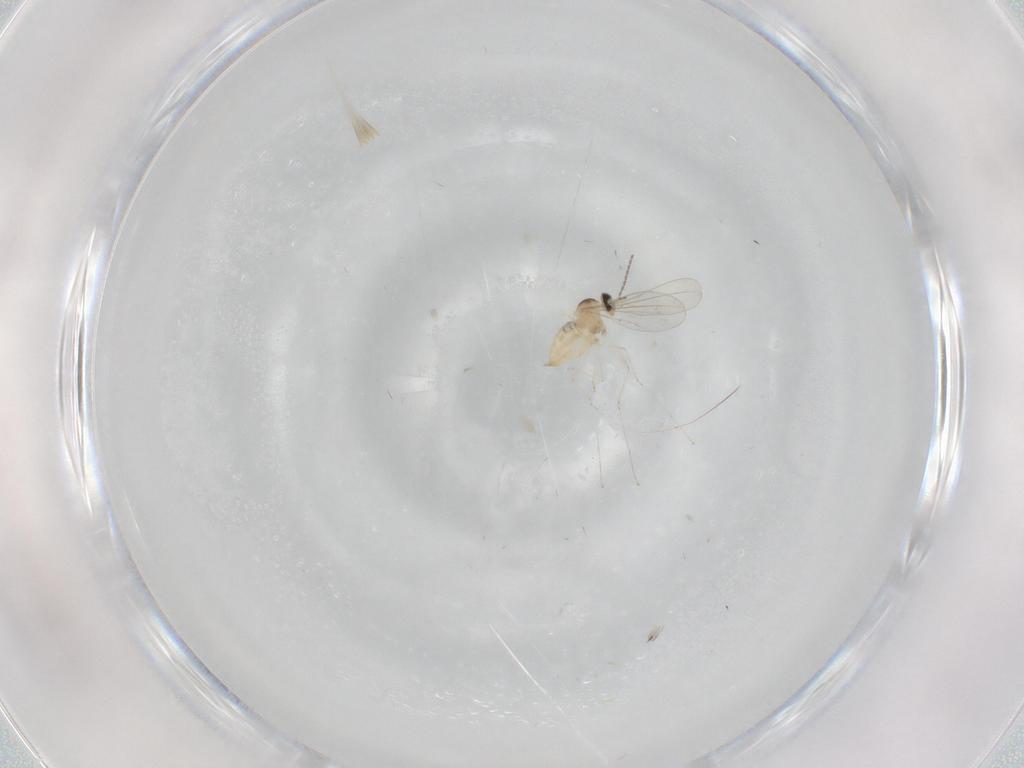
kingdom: Animalia
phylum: Arthropoda
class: Insecta
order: Diptera
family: Cecidomyiidae
